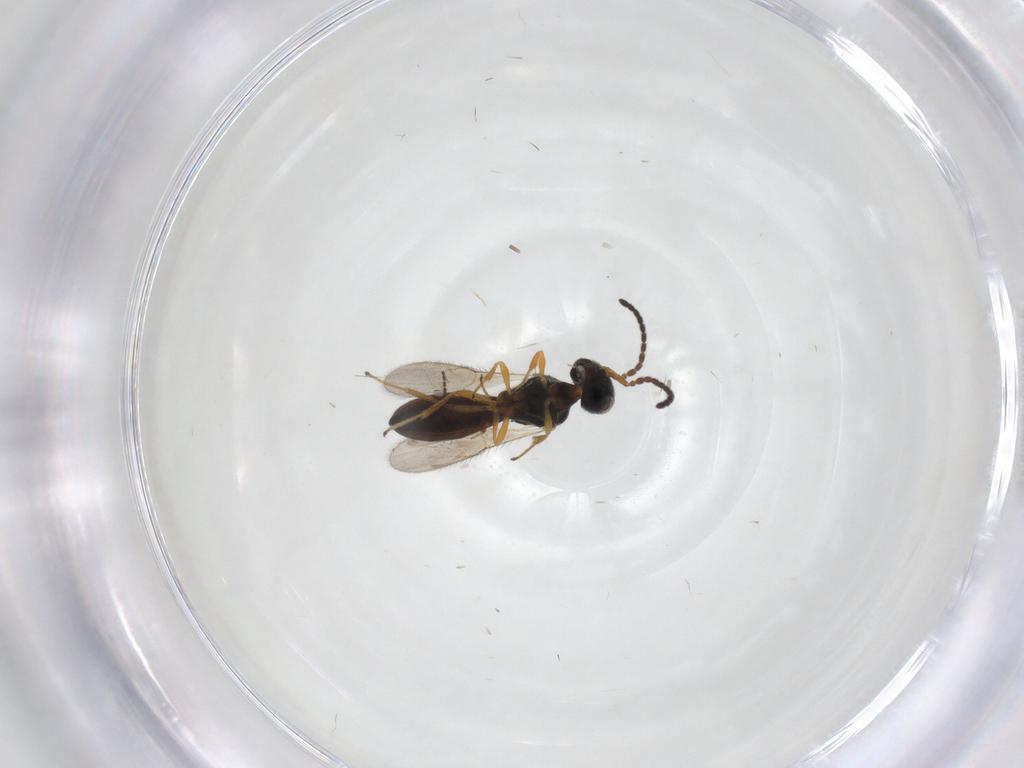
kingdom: Animalia
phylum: Arthropoda
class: Insecta
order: Hymenoptera
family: Scelionidae
